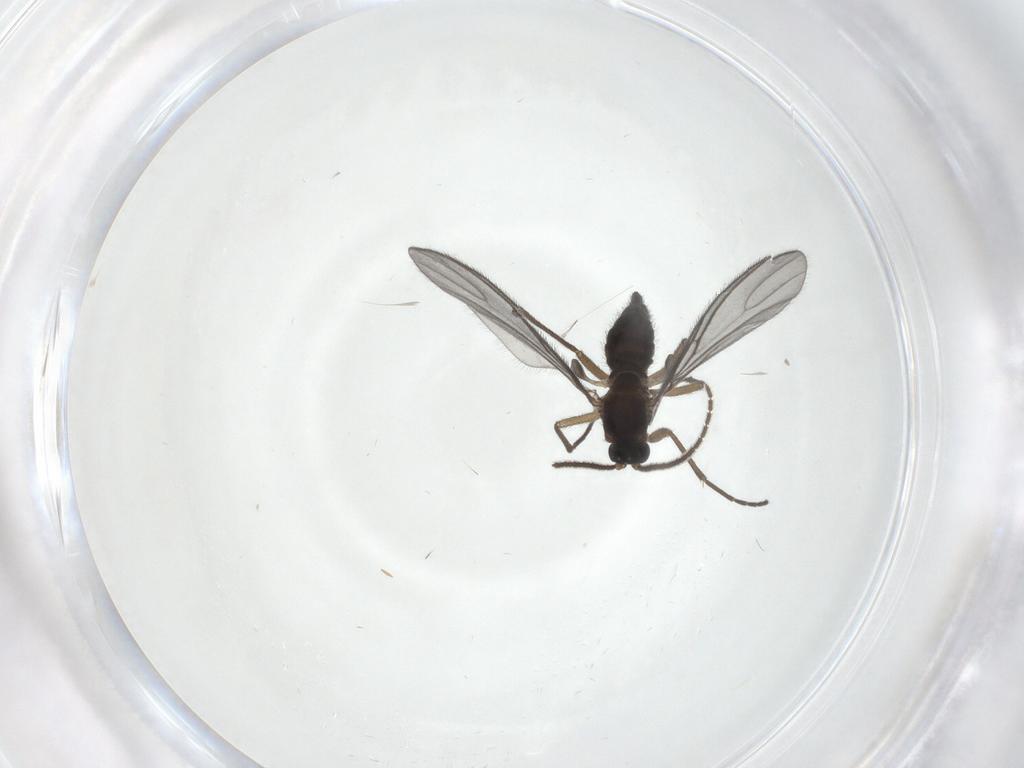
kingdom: Animalia
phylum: Arthropoda
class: Insecta
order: Diptera
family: Sciaridae
